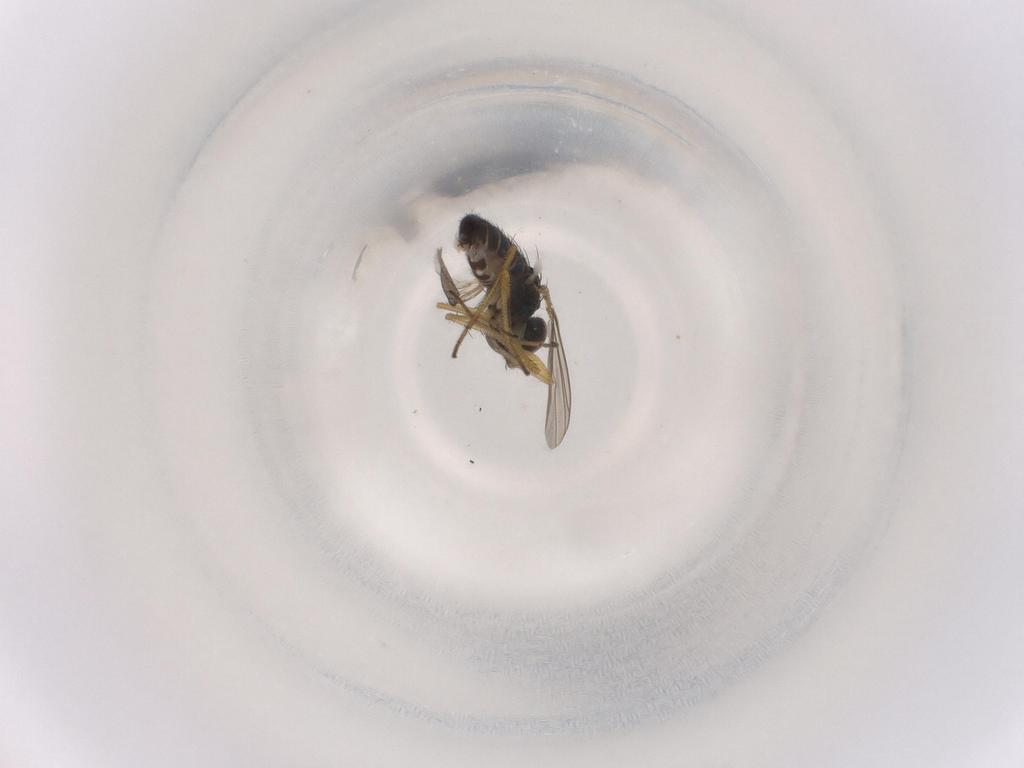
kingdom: Animalia
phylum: Arthropoda
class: Insecta
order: Diptera
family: Dolichopodidae
